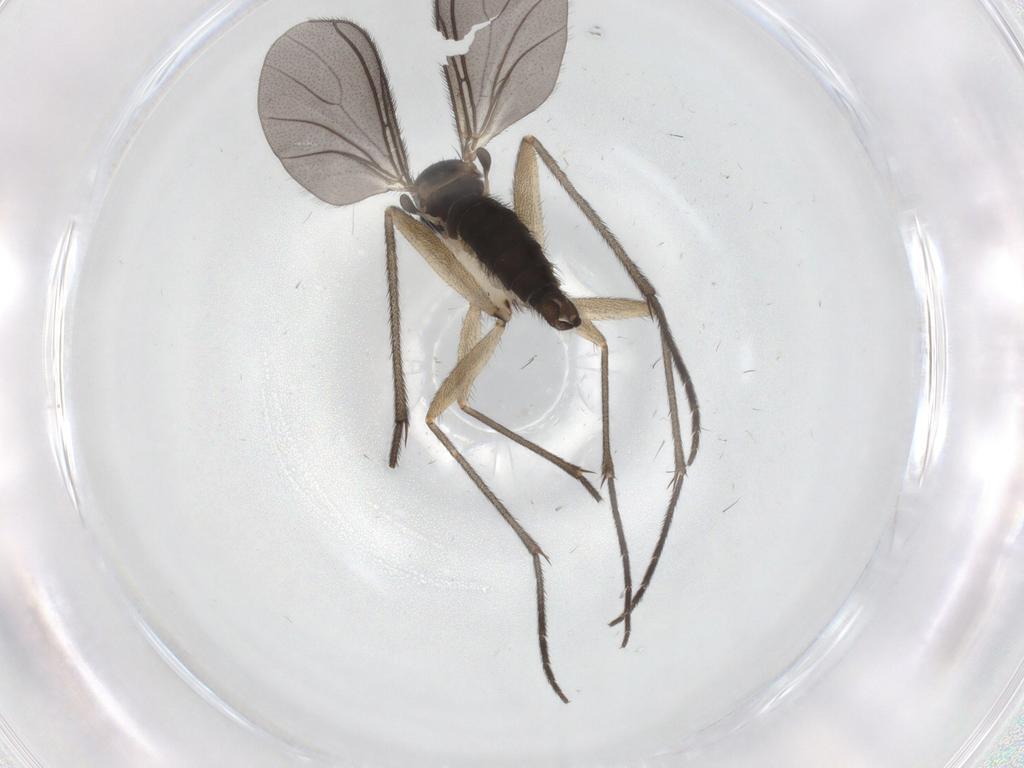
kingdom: Animalia
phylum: Arthropoda
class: Insecta
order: Diptera
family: Sciaridae
